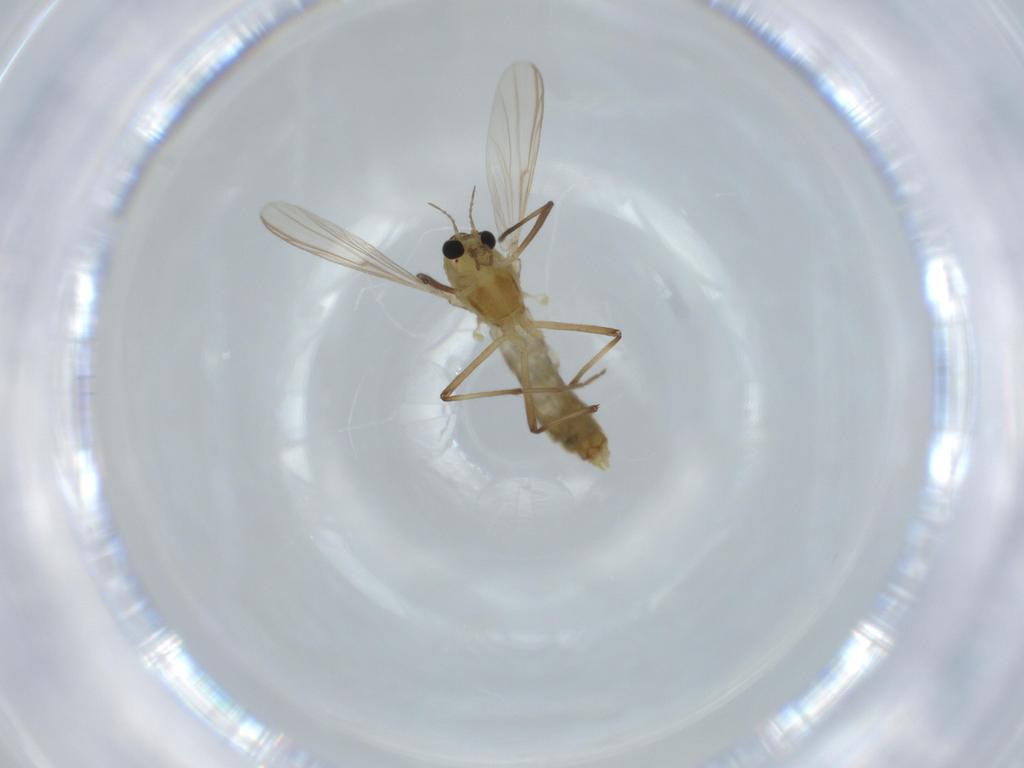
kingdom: Animalia
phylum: Arthropoda
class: Insecta
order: Diptera
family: Chironomidae
